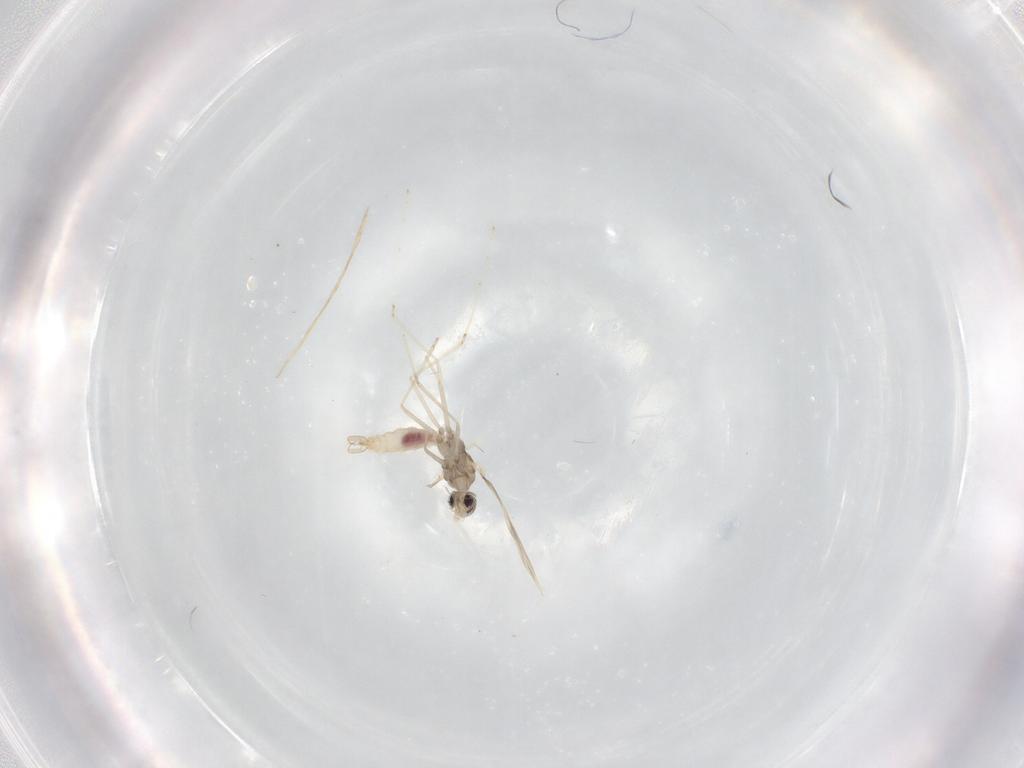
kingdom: Animalia
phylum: Arthropoda
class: Insecta
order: Diptera
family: Cecidomyiidae
